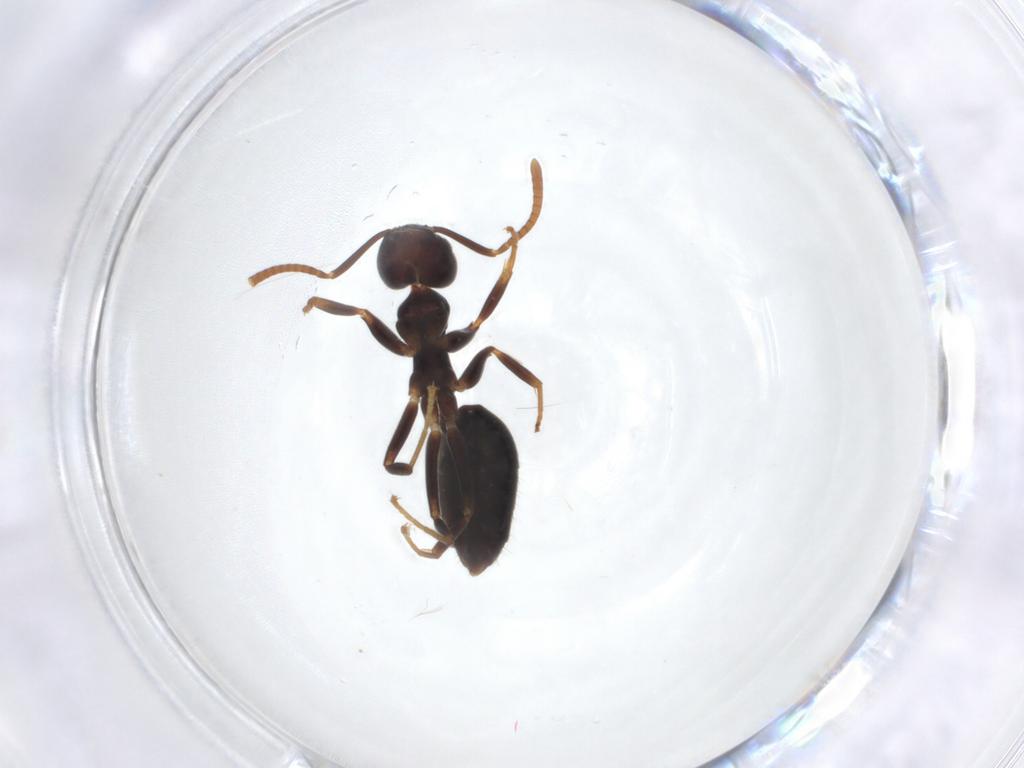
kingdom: Animalia
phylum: Arthropoda
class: Insecta
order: Hymenoptera
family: Formicidae
